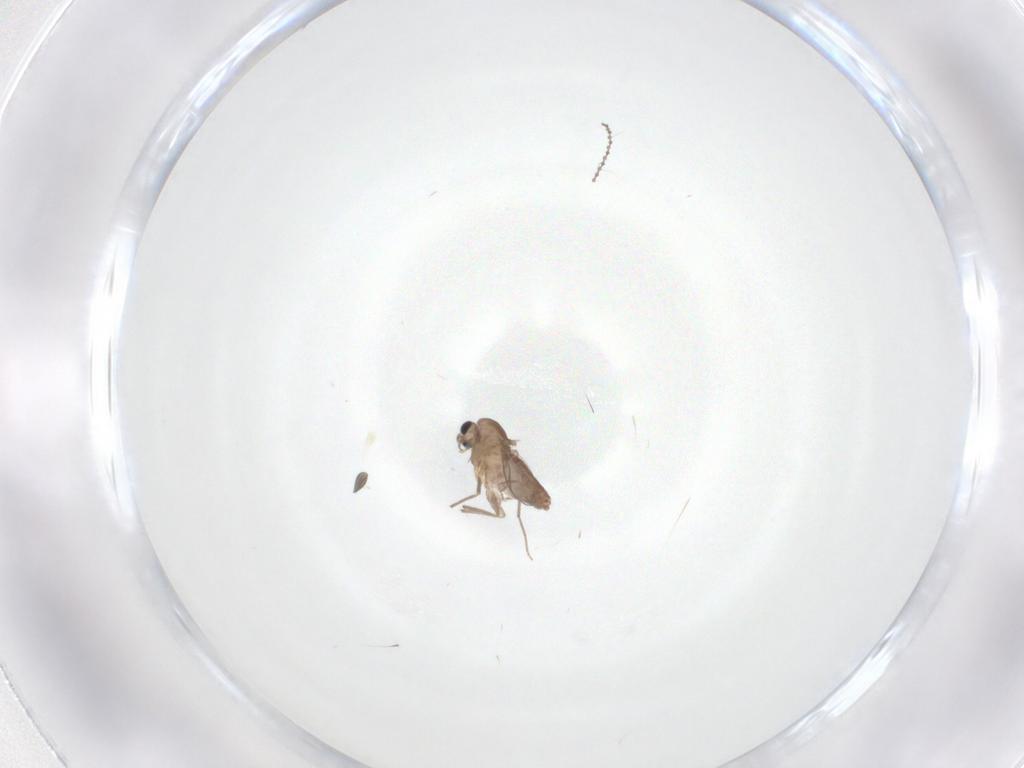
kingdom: Animalia
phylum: Arthropoda
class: Insecta
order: Diptera
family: Chironomidae
